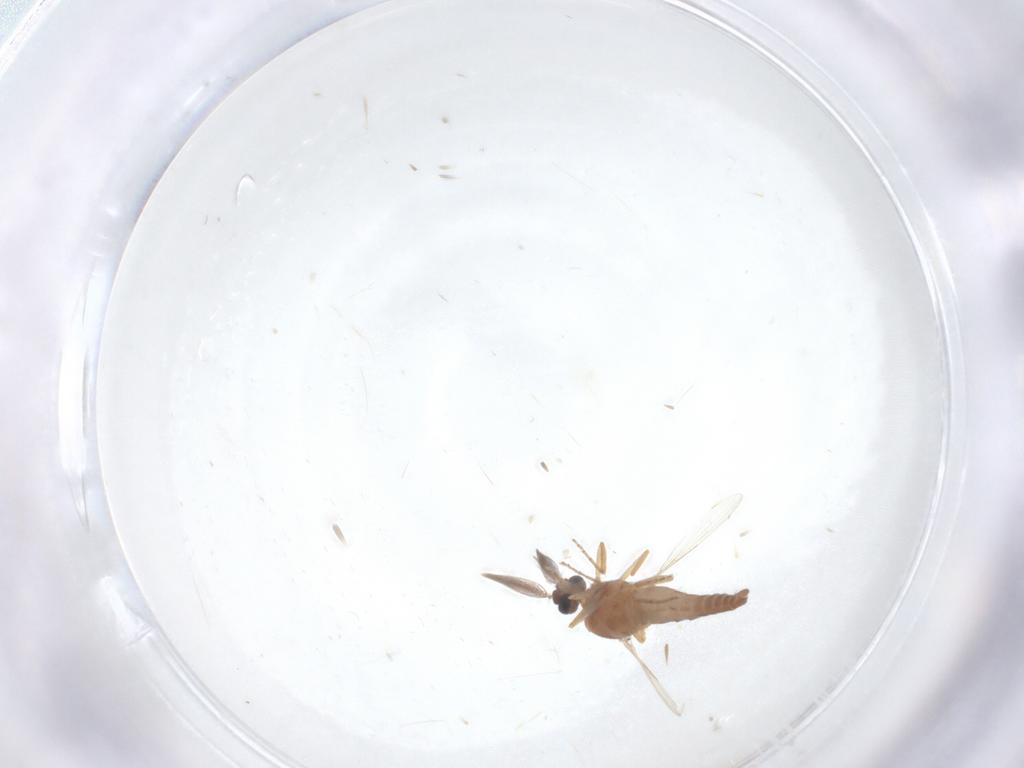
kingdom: Animalia
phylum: Arthropoda
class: Insecta
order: Diptera
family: Ceratopogonidae
